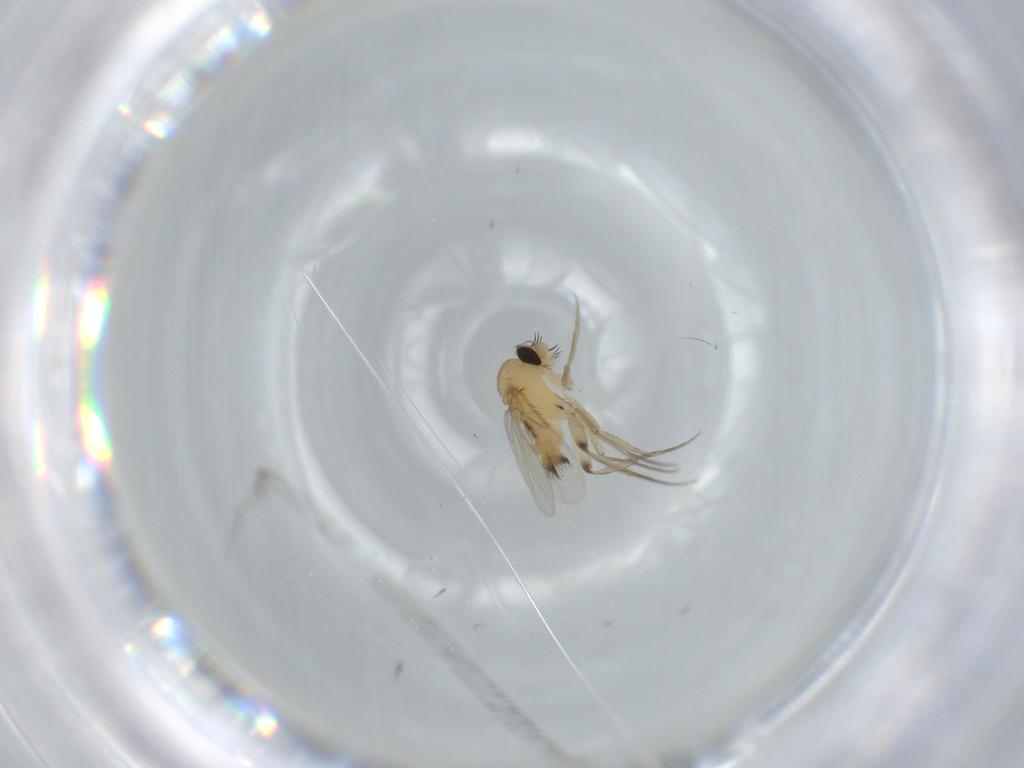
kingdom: Animalia
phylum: Arthropoda
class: Insecta
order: Diptera
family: Phoridae
